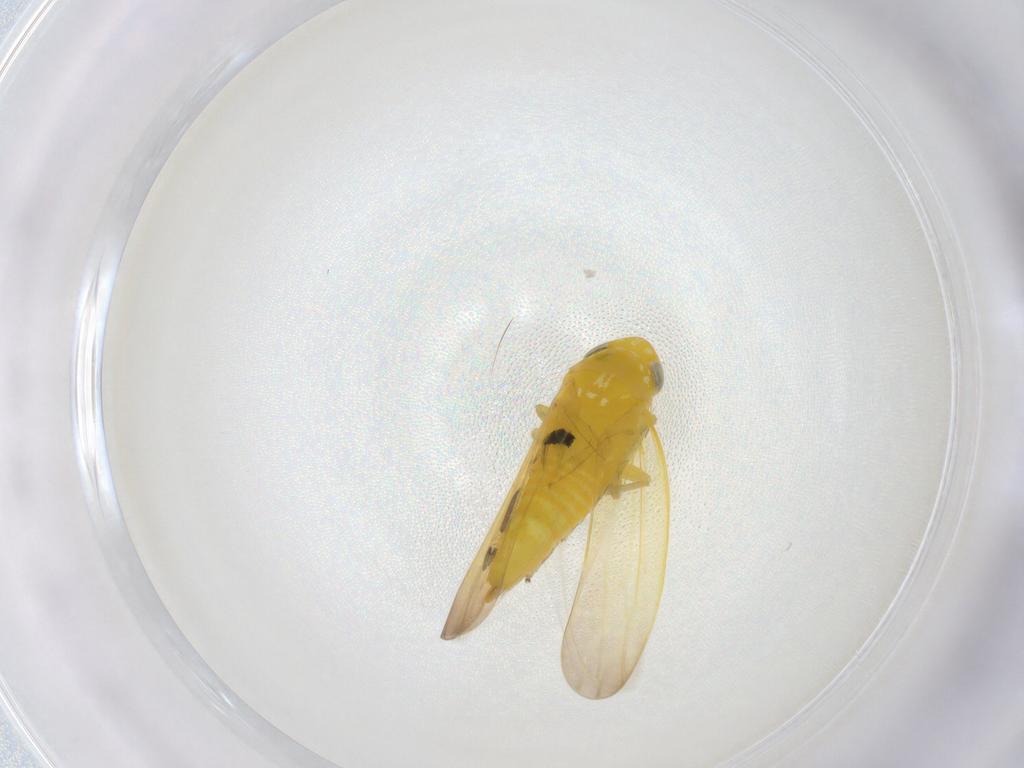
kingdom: Animalia
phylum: Arthropoda
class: Insecta
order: Hemiptera
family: Cicadellidae
